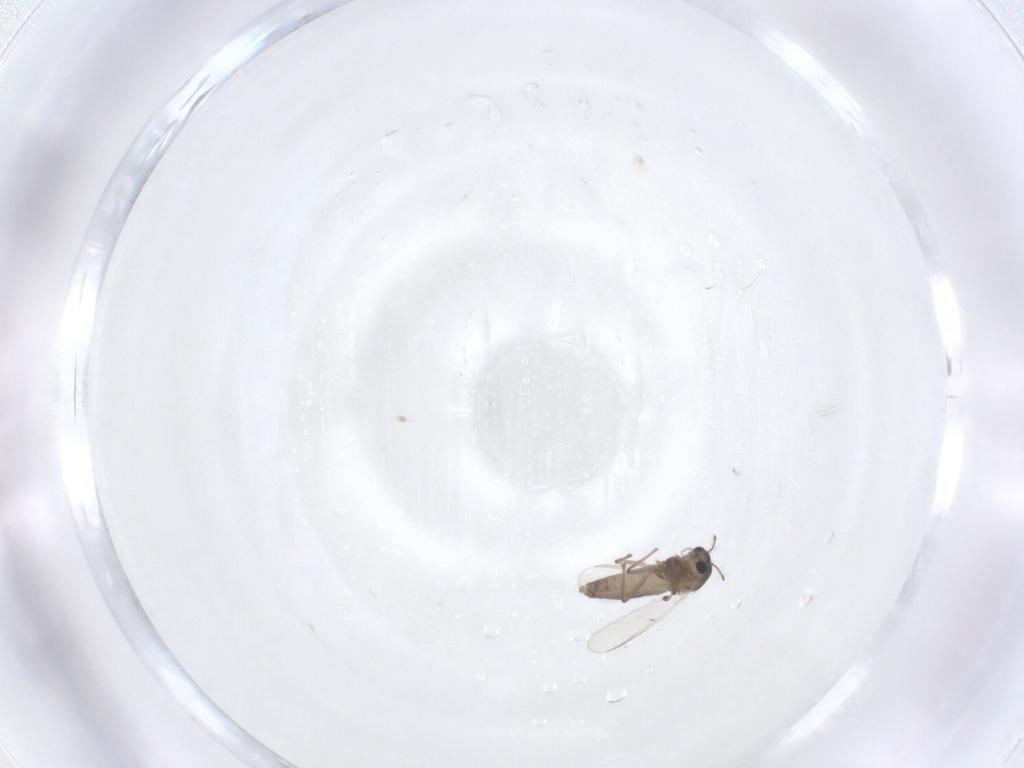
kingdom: Animalia
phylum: Arthropoda
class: Insecta
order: Diptera
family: Chironomidae
